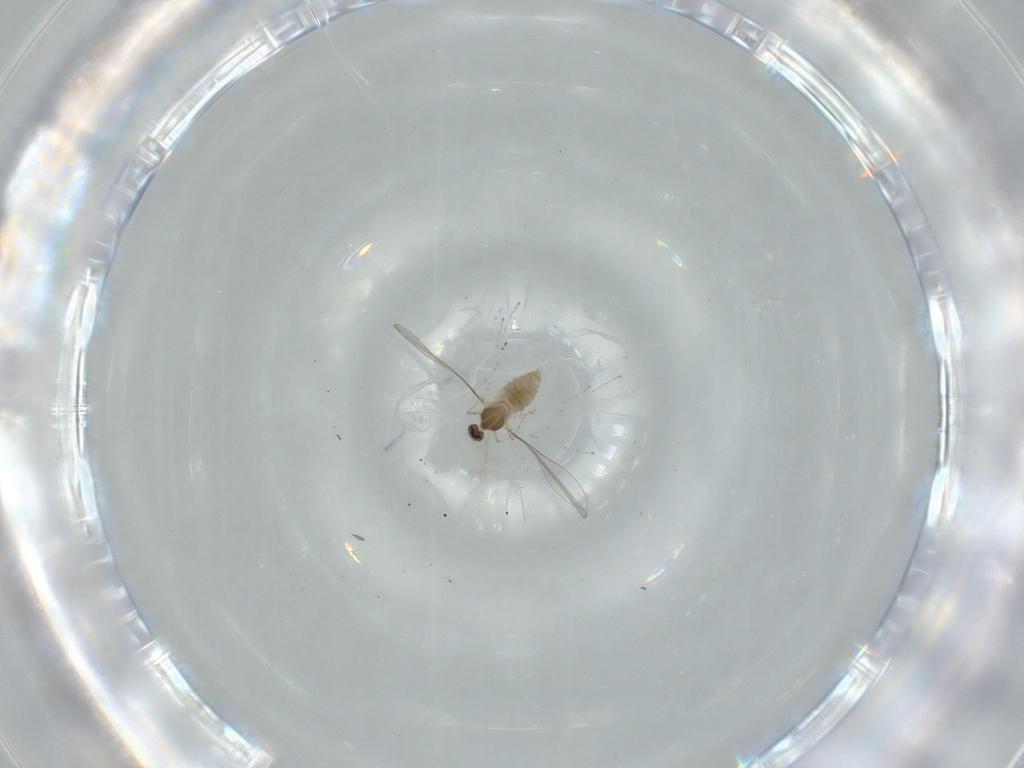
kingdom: Animalia
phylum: Arthropoda
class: Insecta
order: Diptera
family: Cecidomyiidae
